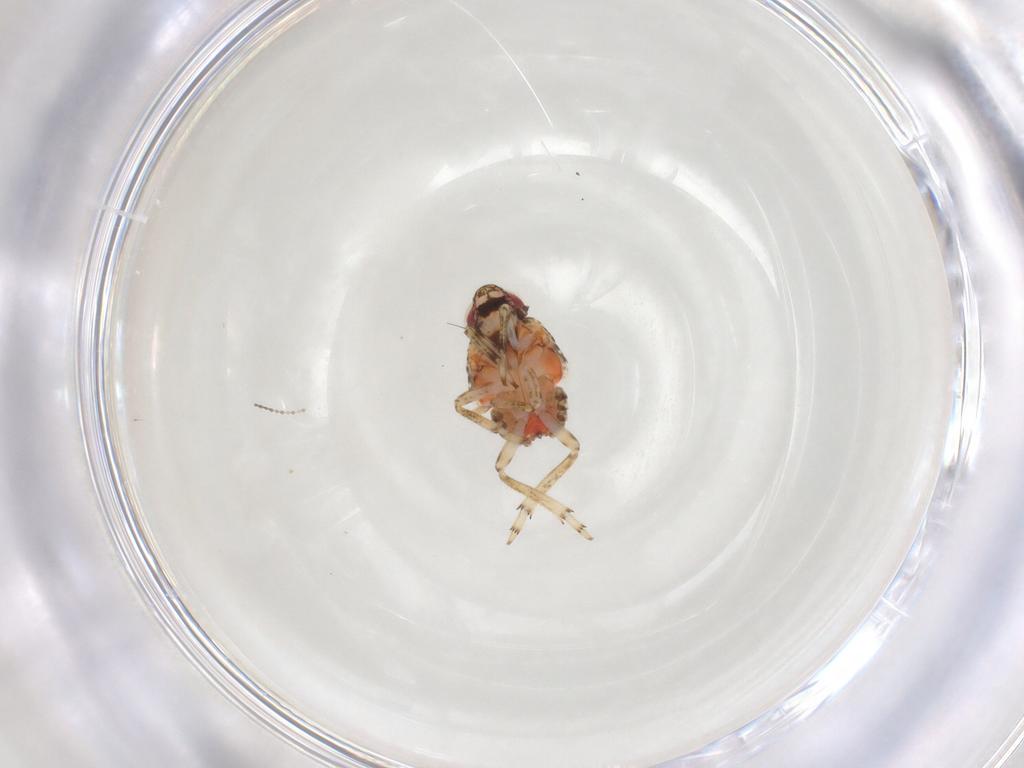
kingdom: Animalia
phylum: Arthropoda
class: Insecta
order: Hemiptera
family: Issidae
